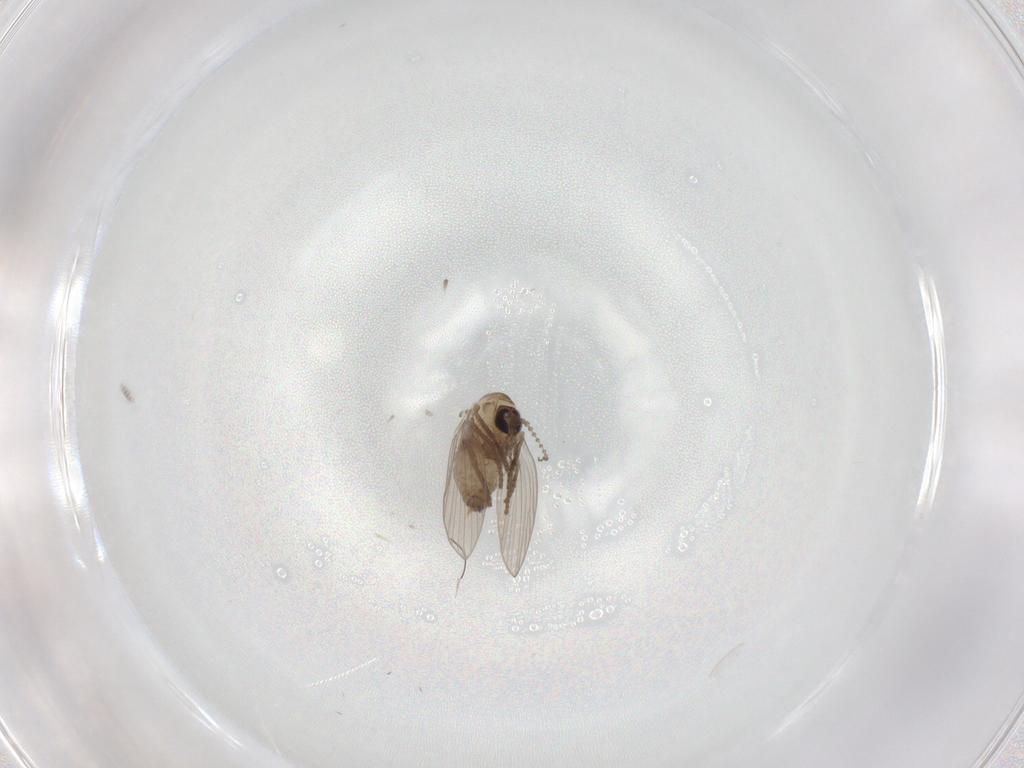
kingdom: Animalia
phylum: Arthropoda
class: Insecta
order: Diptera
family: Psychodidae
